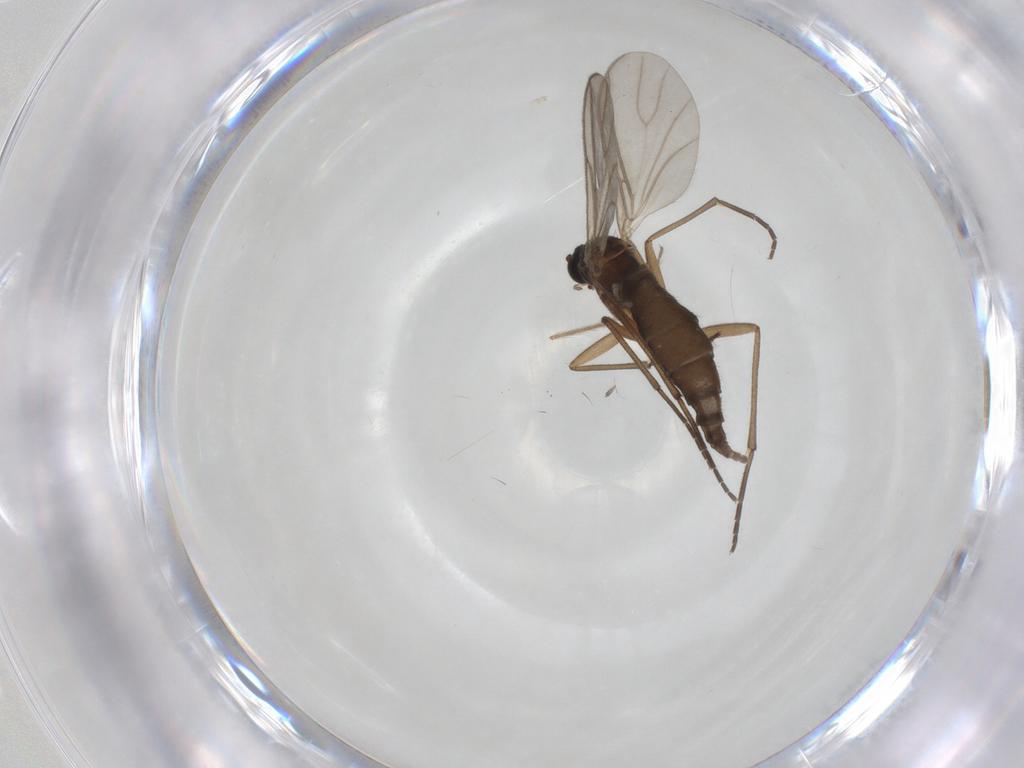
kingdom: Animalia
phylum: Arthropoda
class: Insecta
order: Diptera
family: Sciaridae
